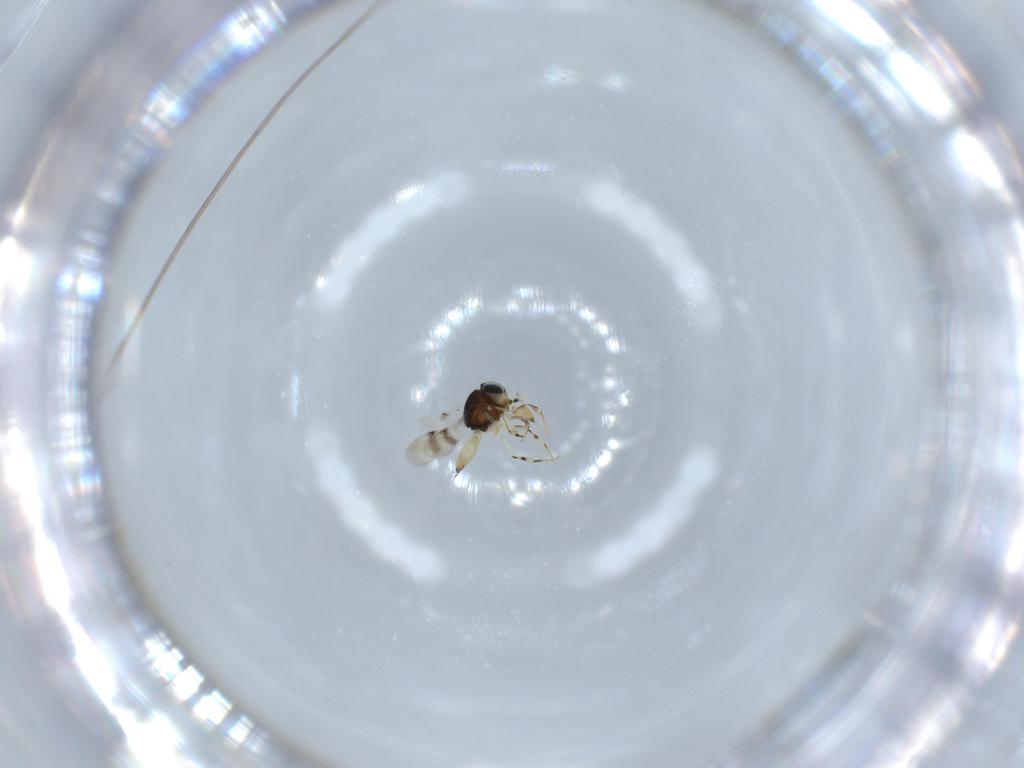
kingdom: Animalia
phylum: Arthropoda
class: Insecta
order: Hymenoptera
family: Scelionidae
